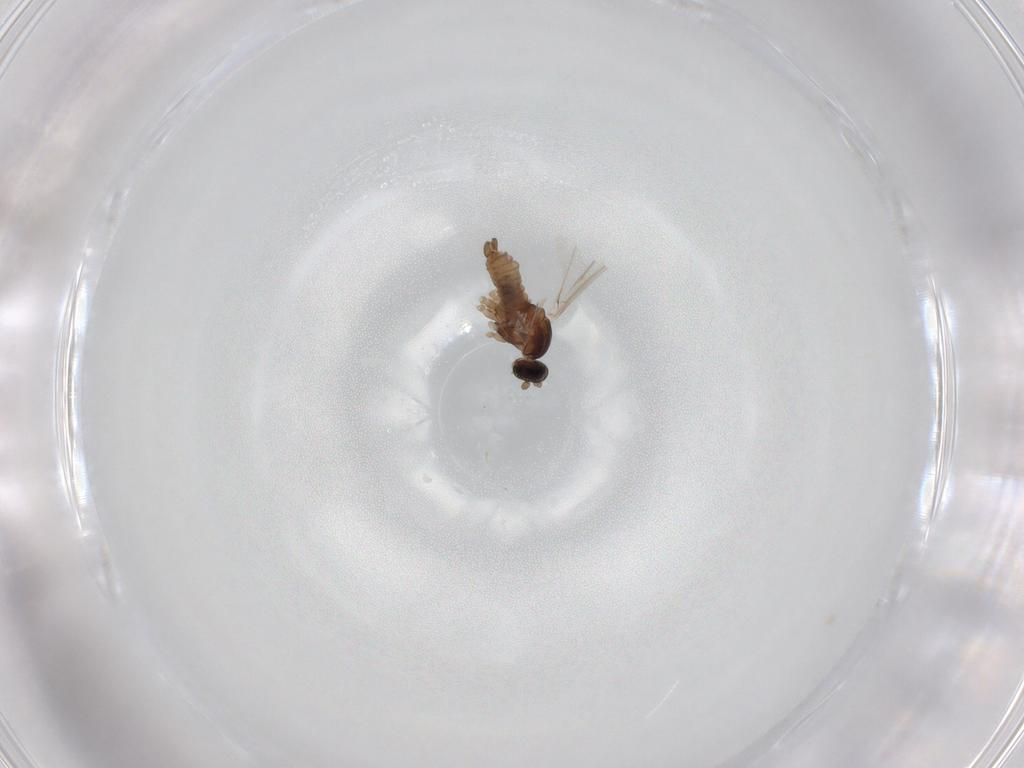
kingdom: Animalia
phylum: Arthropoda
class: Insecta
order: Diptera
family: Cecidomyiidae
